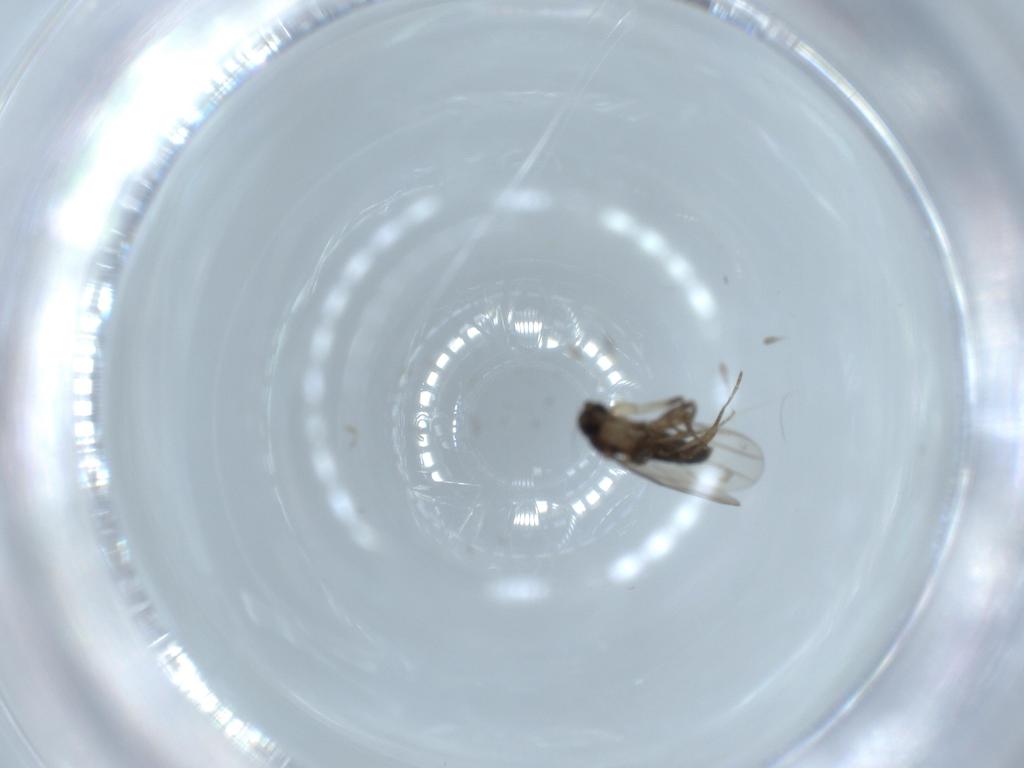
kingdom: Animalia
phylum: Arthropoda
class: Insecta
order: Diptera
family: Phoridae
